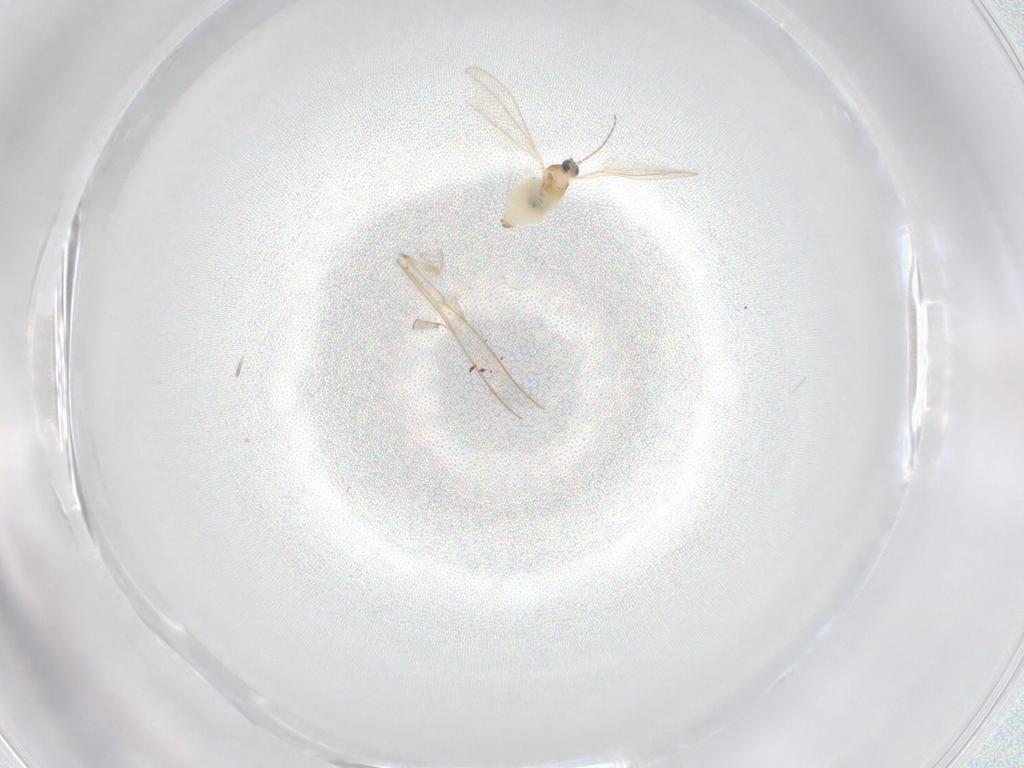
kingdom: Animalia
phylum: Arthropoda
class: Insecta
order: Diptera
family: Cecidomyiidae
